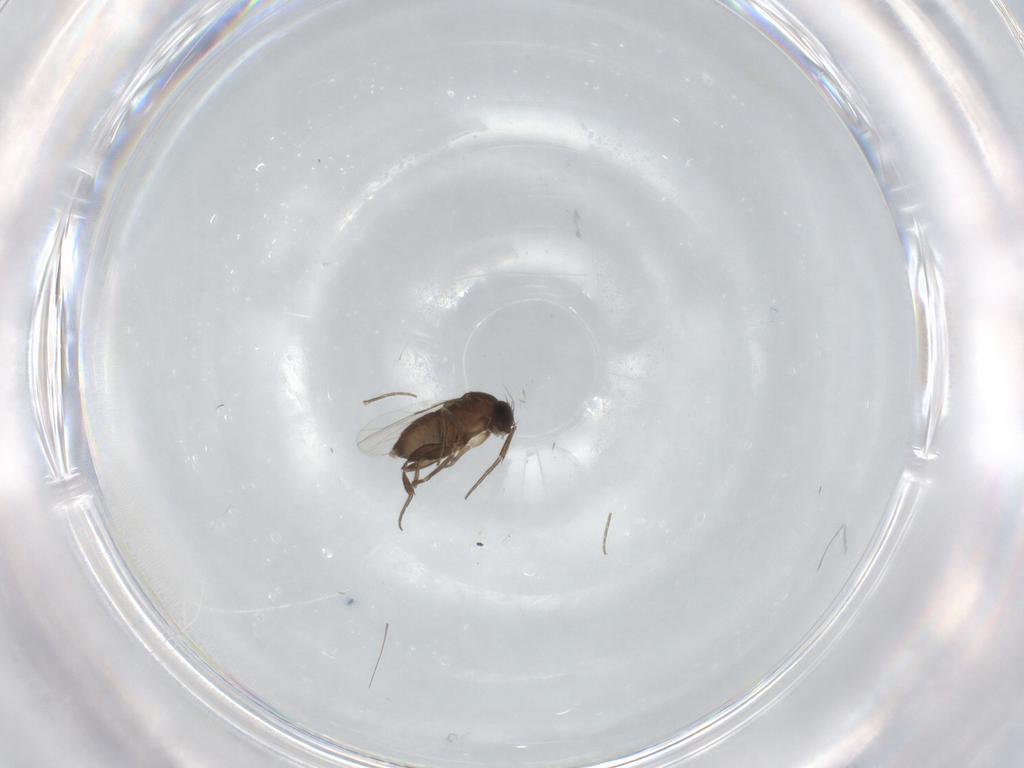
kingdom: Animalia
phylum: Arthropoda
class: Insecta
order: Diptera
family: Phoridae
